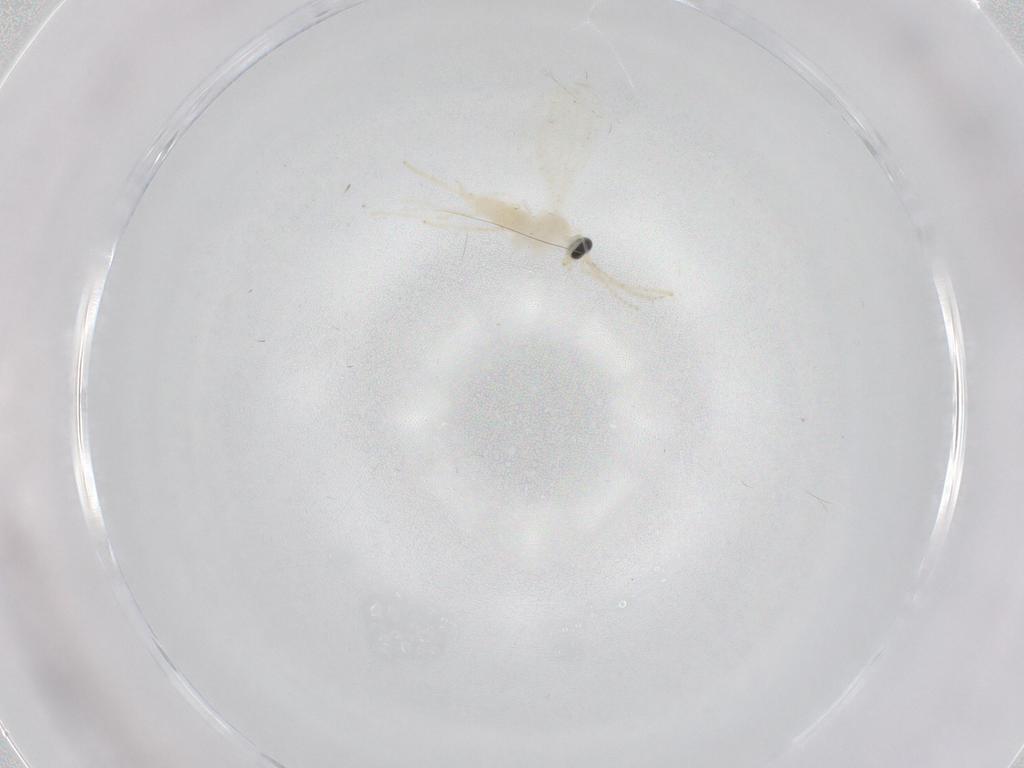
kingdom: Animalia
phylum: Arthropoda
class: Insecta
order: Diptera
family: Cecidomyiidae
